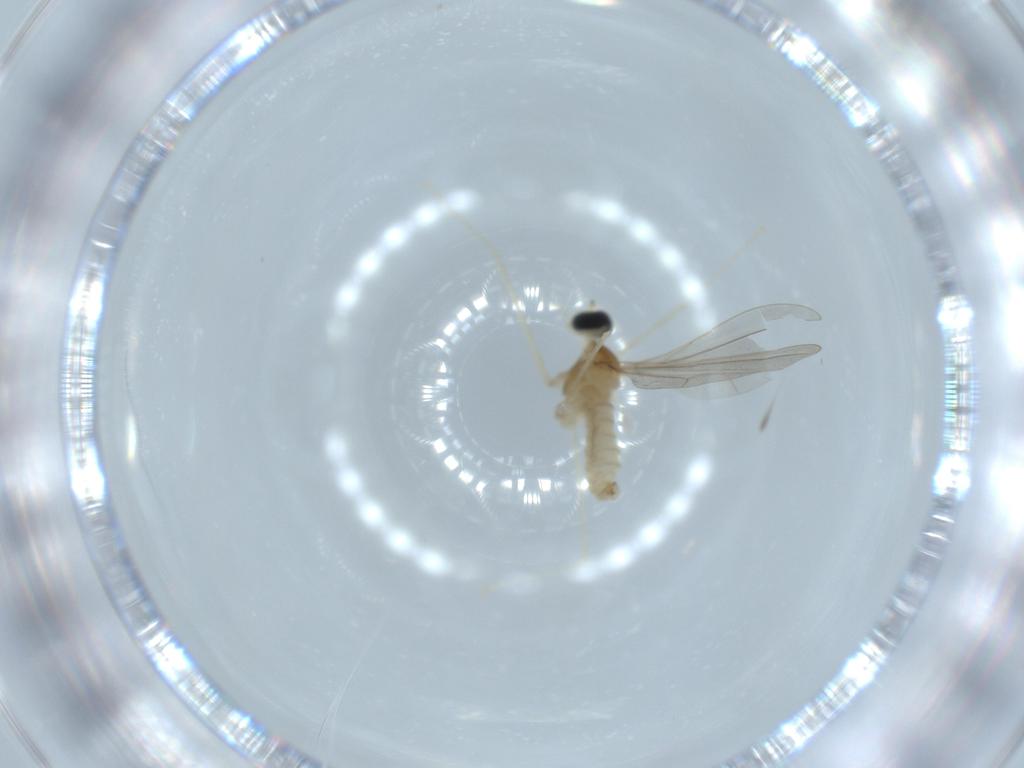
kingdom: Animalia
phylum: Arthropoda
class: Insecta
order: Diptera
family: Cecidomyiidae
